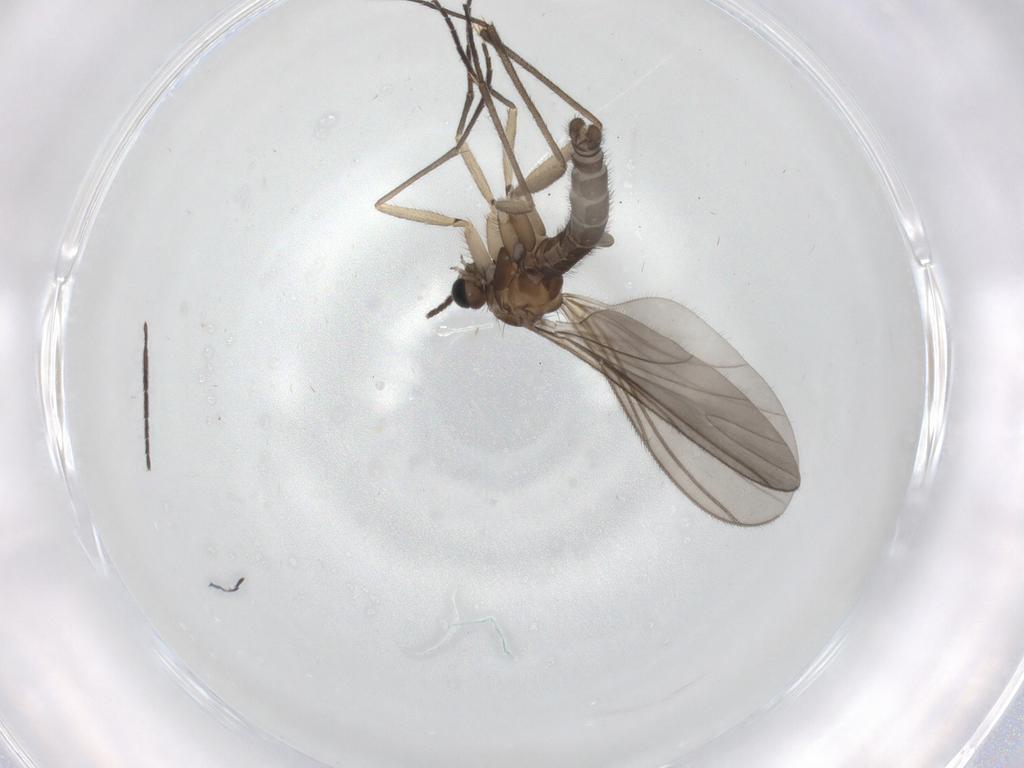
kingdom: Animalia
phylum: Arthropoda
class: Insecta
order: Diptera
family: Sciaridae
